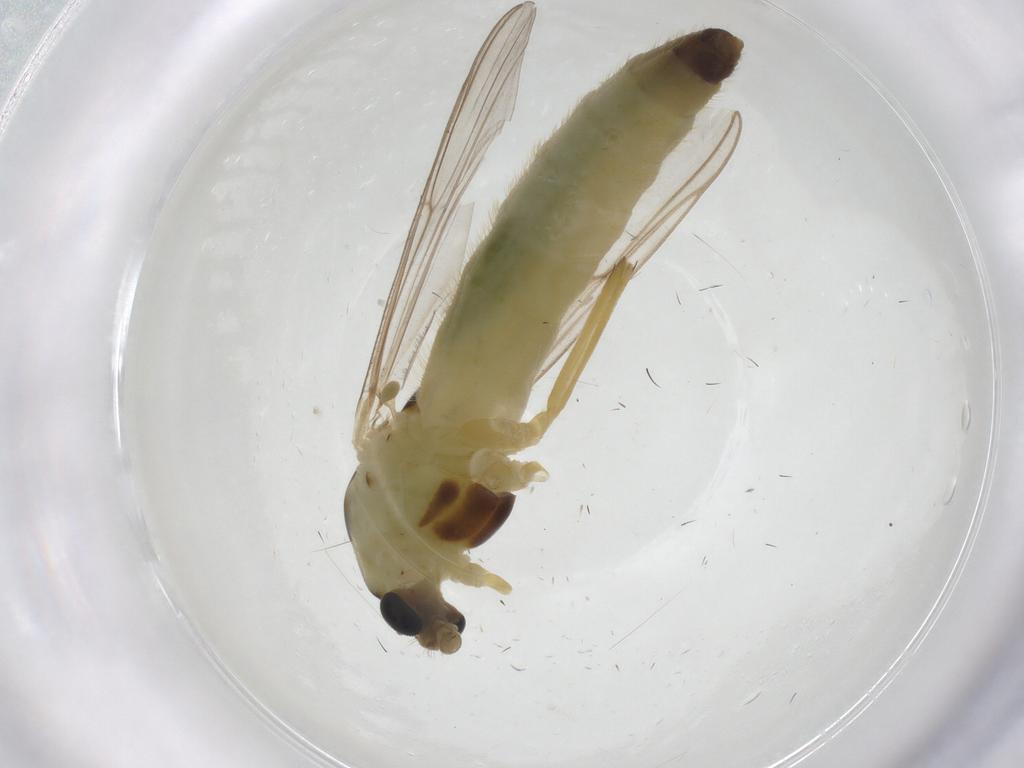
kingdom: Animalia
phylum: Arthropoda
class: Insecta
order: Diptera
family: Chironomidae
